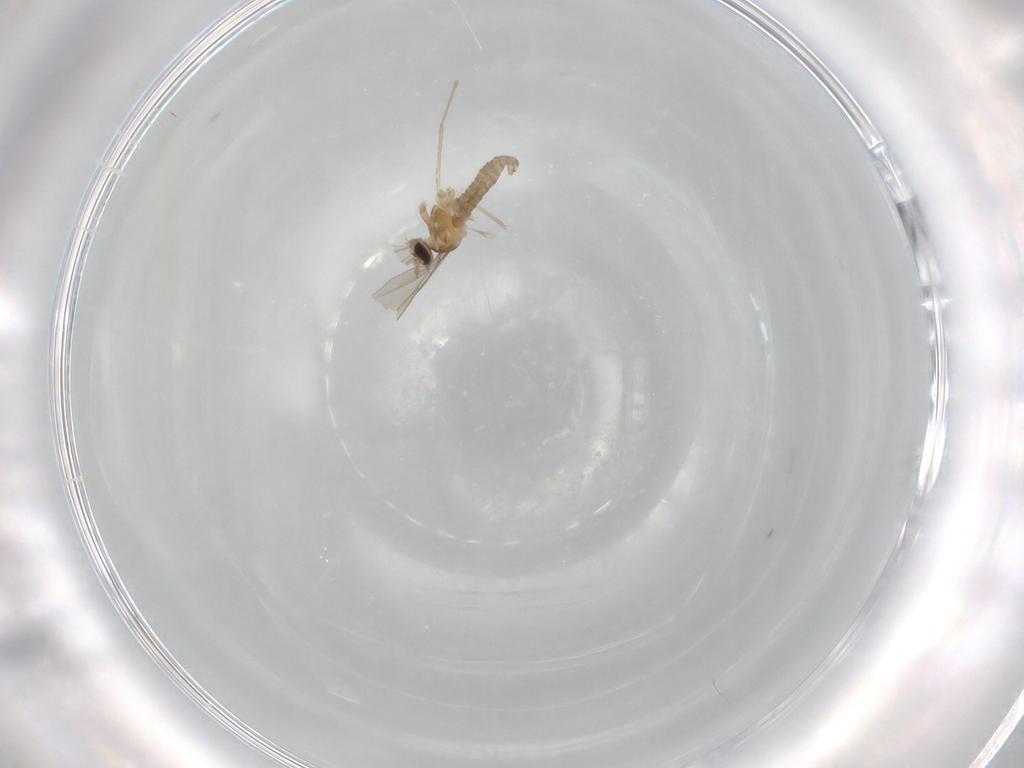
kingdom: Animalia
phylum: Arthropoda
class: Insecta
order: Diptera
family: Cecidomyiidae
